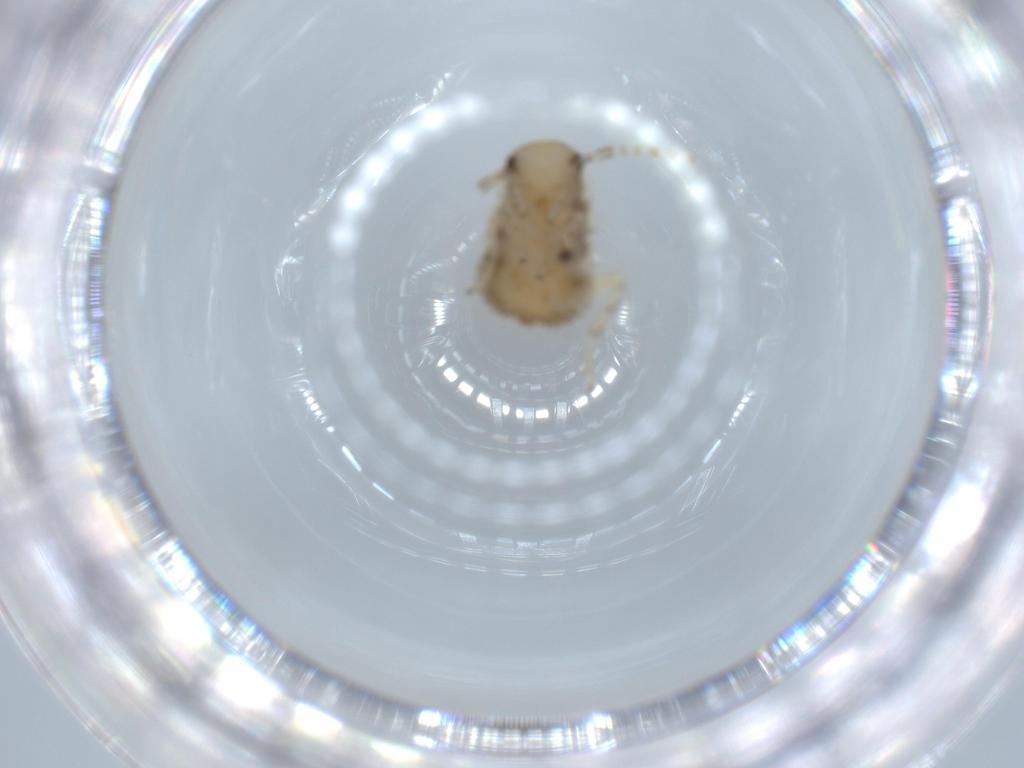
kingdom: Animalia
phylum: Arthropoda
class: Insecta
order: Blattodea
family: Ectobiidae
